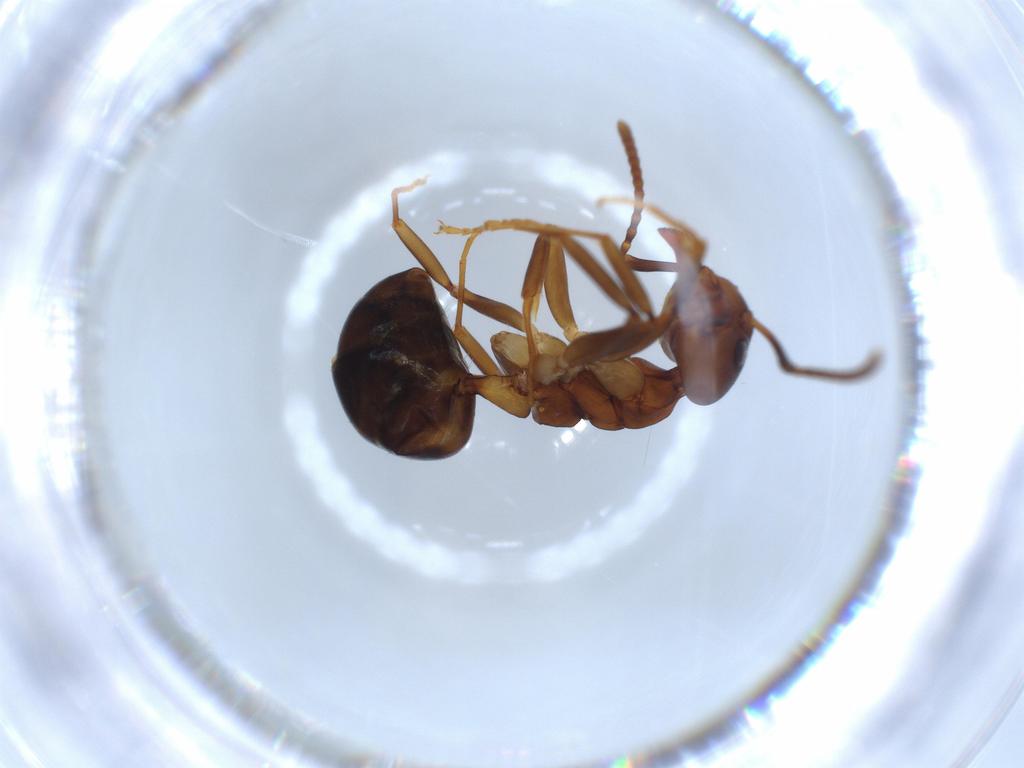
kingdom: Animalia
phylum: Arthropoda
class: Insecta
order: Hymenoptera
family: Formicidae
